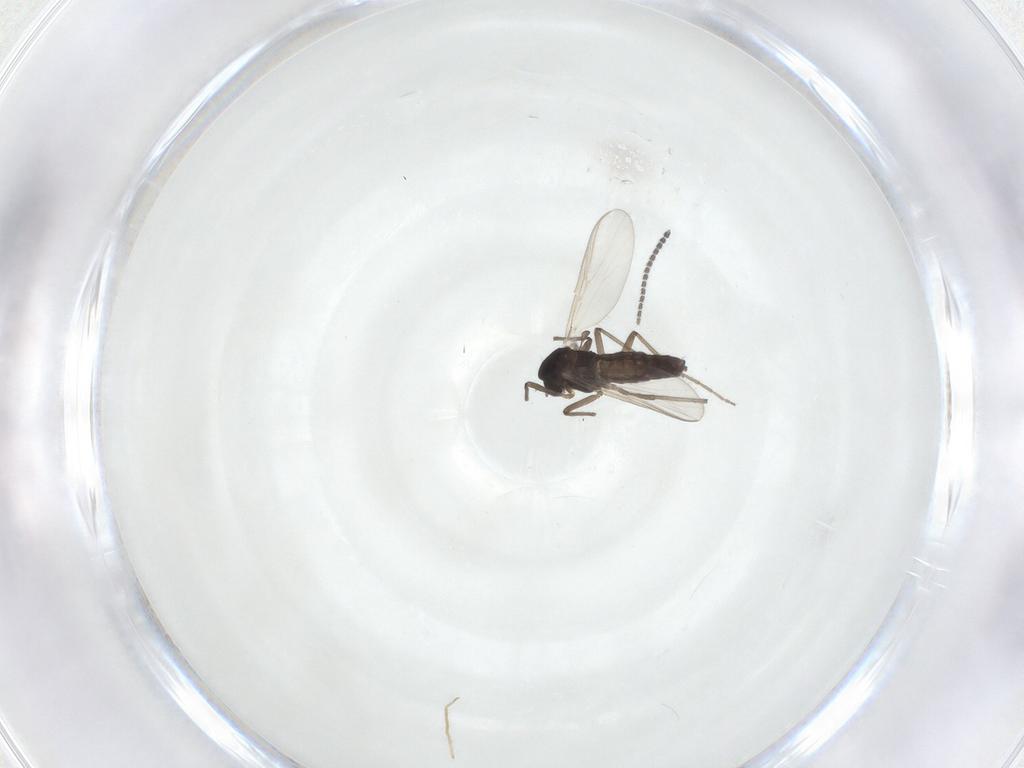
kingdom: Animalia
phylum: Arthropoda
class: Insecta
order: Diptera
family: Chironomidae
